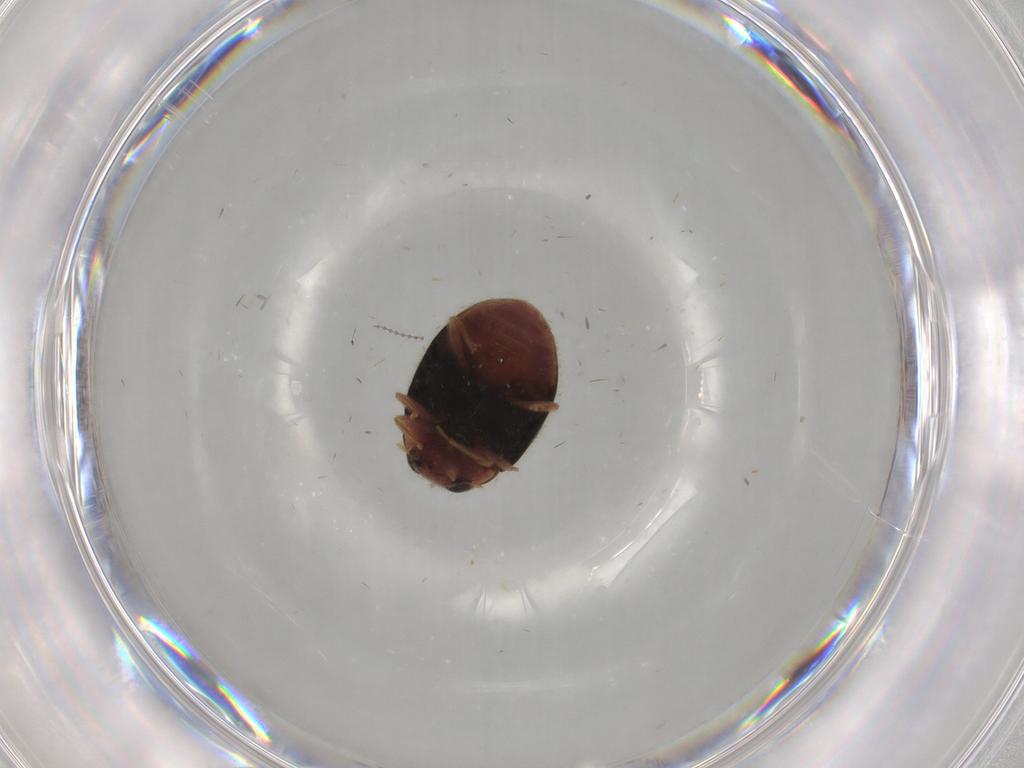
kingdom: Animalia
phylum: Arthropoda
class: Insecta
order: Coleoptera
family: Coccinellidae
